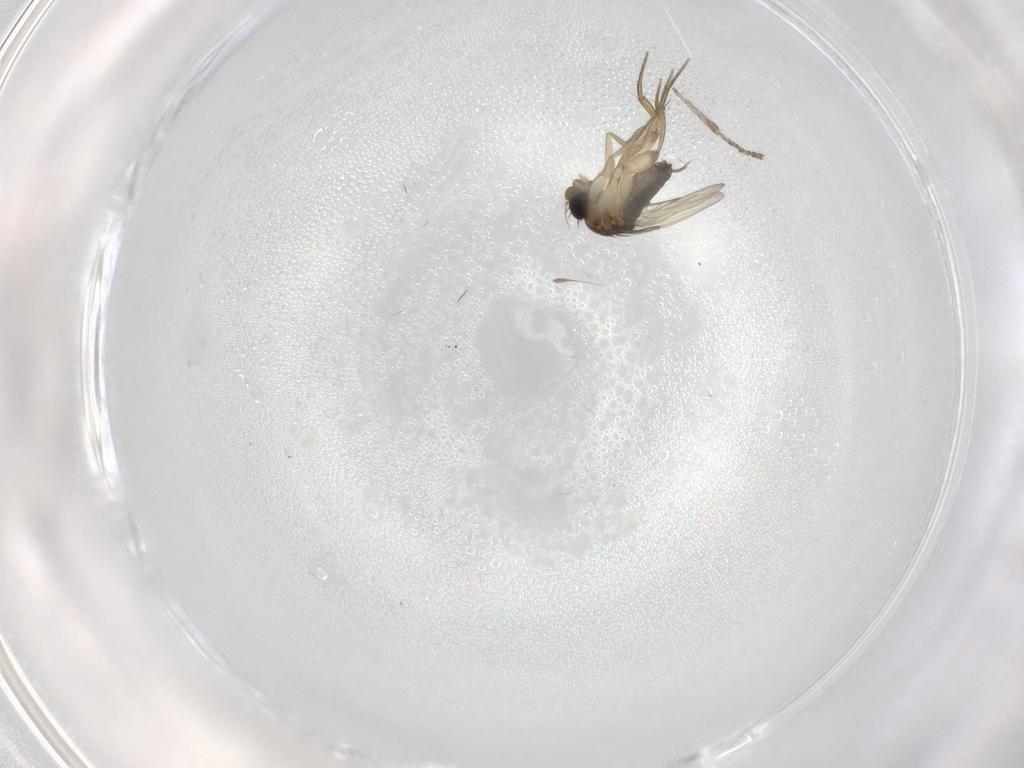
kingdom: Animalia
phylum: Arthropoda
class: Insecta
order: Diptera
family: Phoridae
